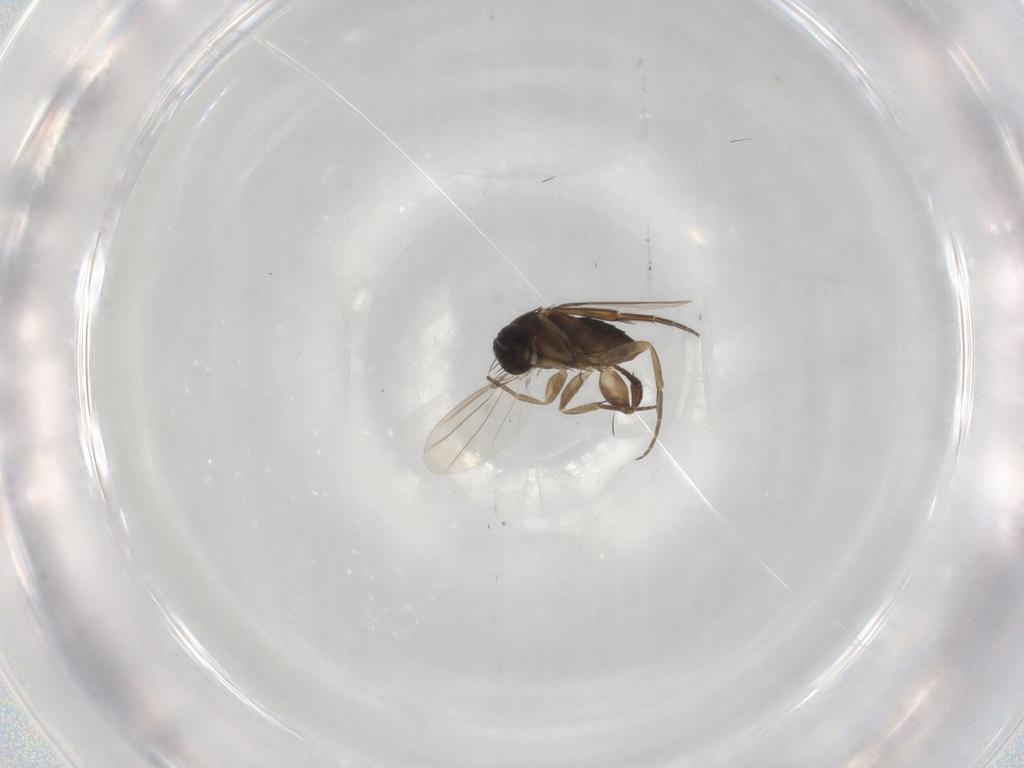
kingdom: Animalia
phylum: Arthropoda
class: Insecta
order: Diptera
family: Phoridae
